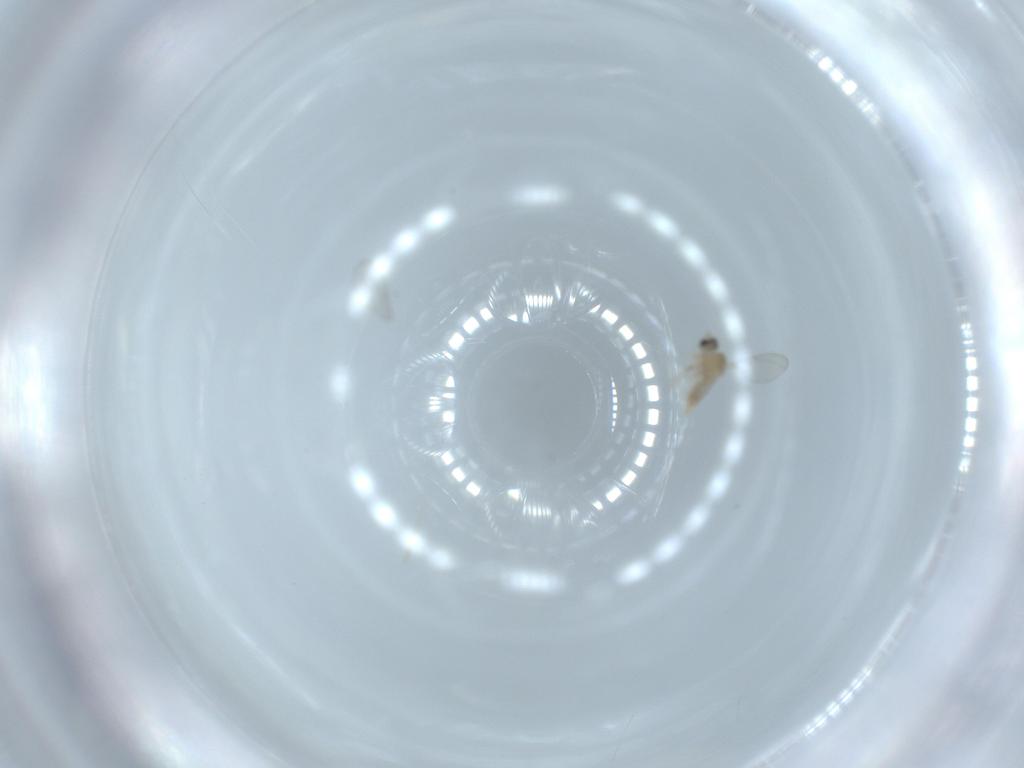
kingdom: Animalia
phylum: Arthropoda
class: Insecta
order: Diptera
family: Cecidomyiidae
